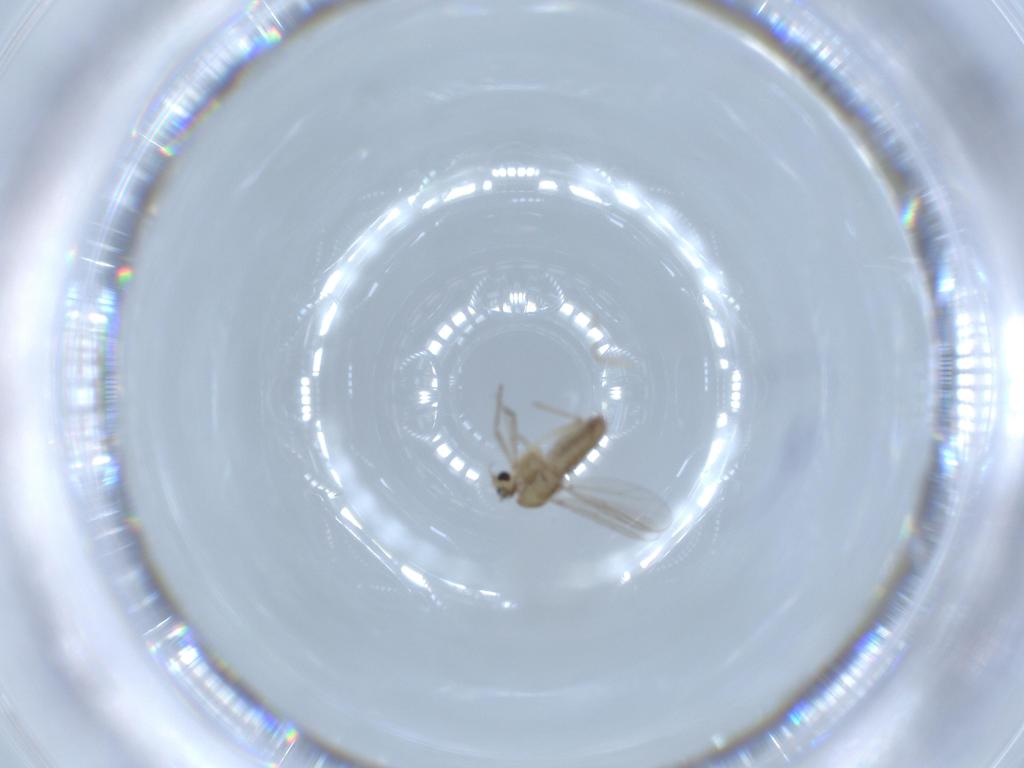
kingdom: Animalia
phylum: Arthropoda
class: Insecta
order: Diptera
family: Chironomidae
